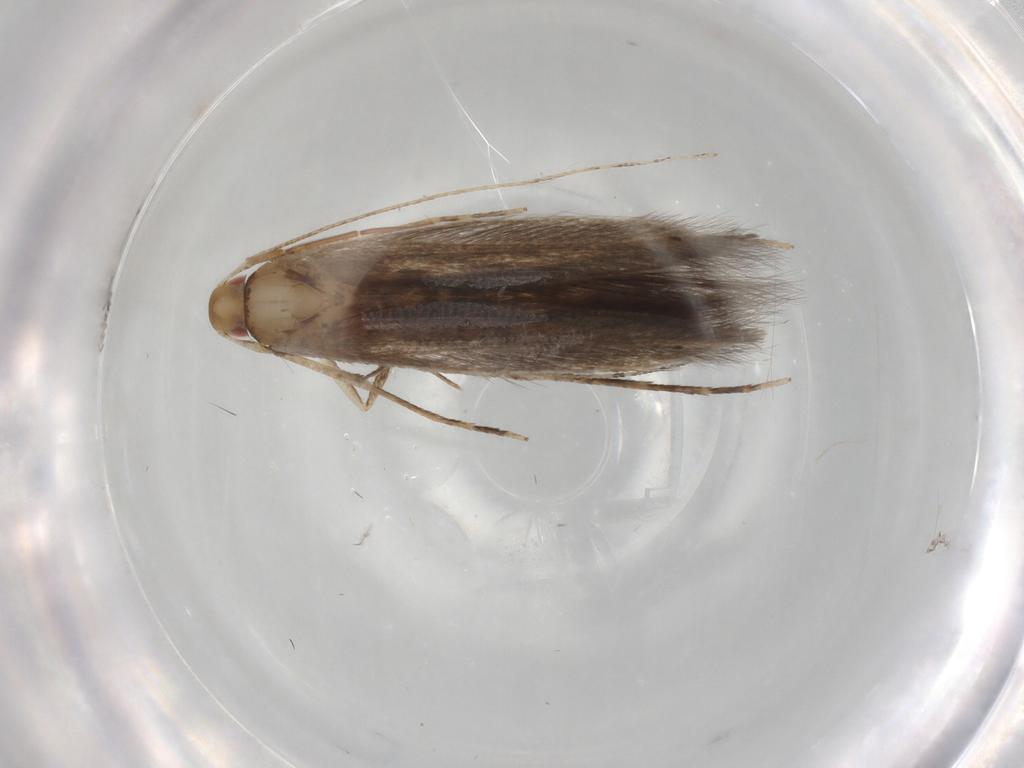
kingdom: Animalia
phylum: Arthropoda
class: Insecta
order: Lepidoptera
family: Cosmopterigidae
